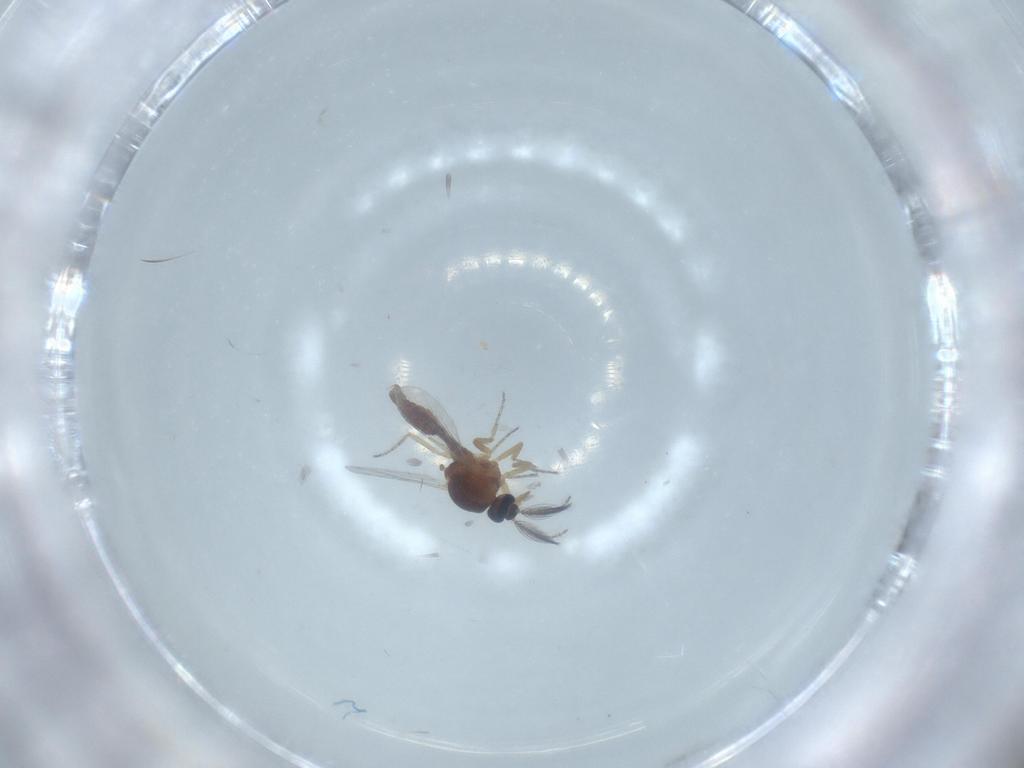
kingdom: Animalia
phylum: Arthropoda
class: Insecta
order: Diptera
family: Ceratopogonidae
